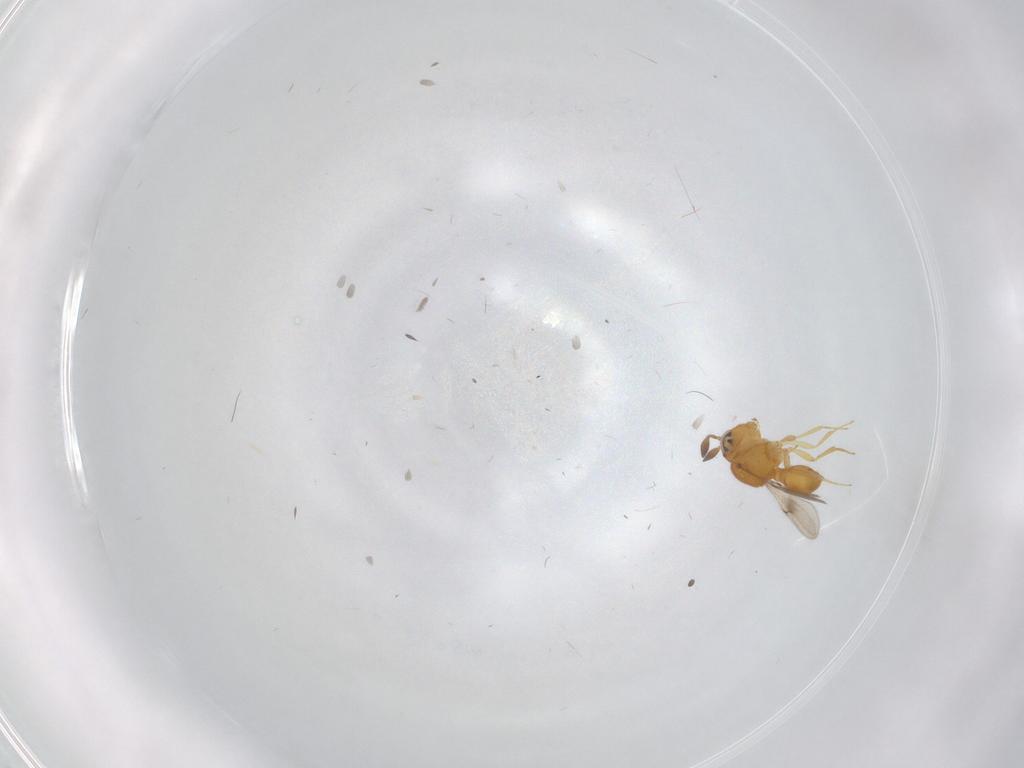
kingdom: Animalia
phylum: Arthropoda
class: Insecta
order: Hymenoptera
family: Scelionidae
